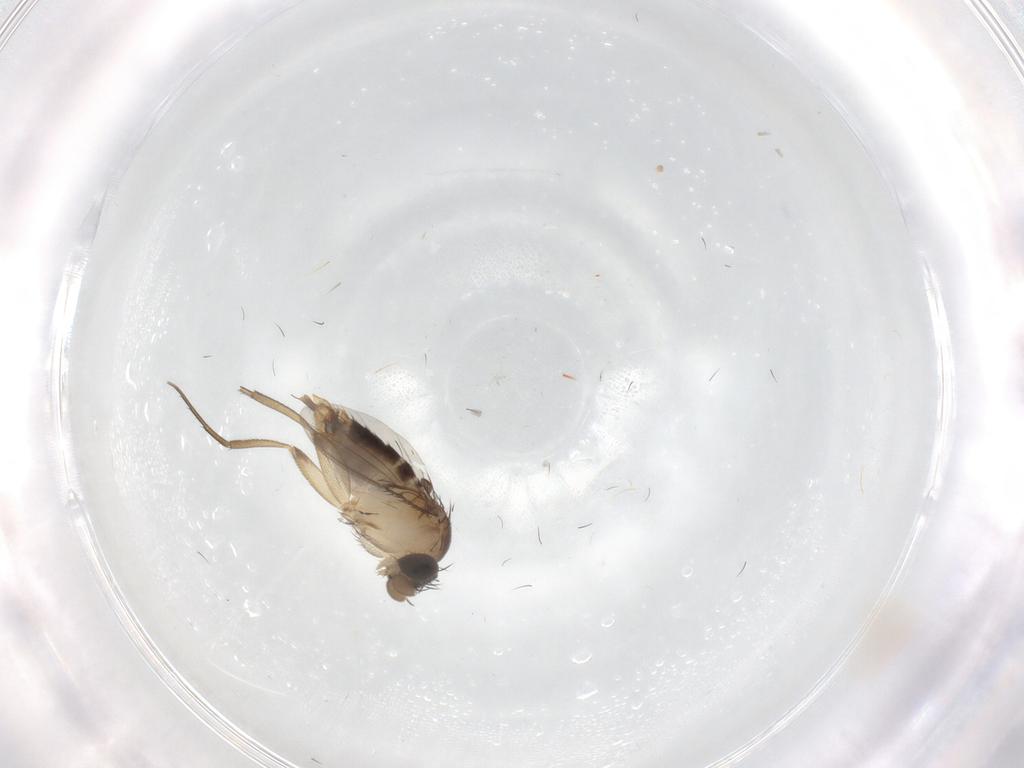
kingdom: Animalia
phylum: Arthropoda
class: Insecta
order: Diptera
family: Phoridae
